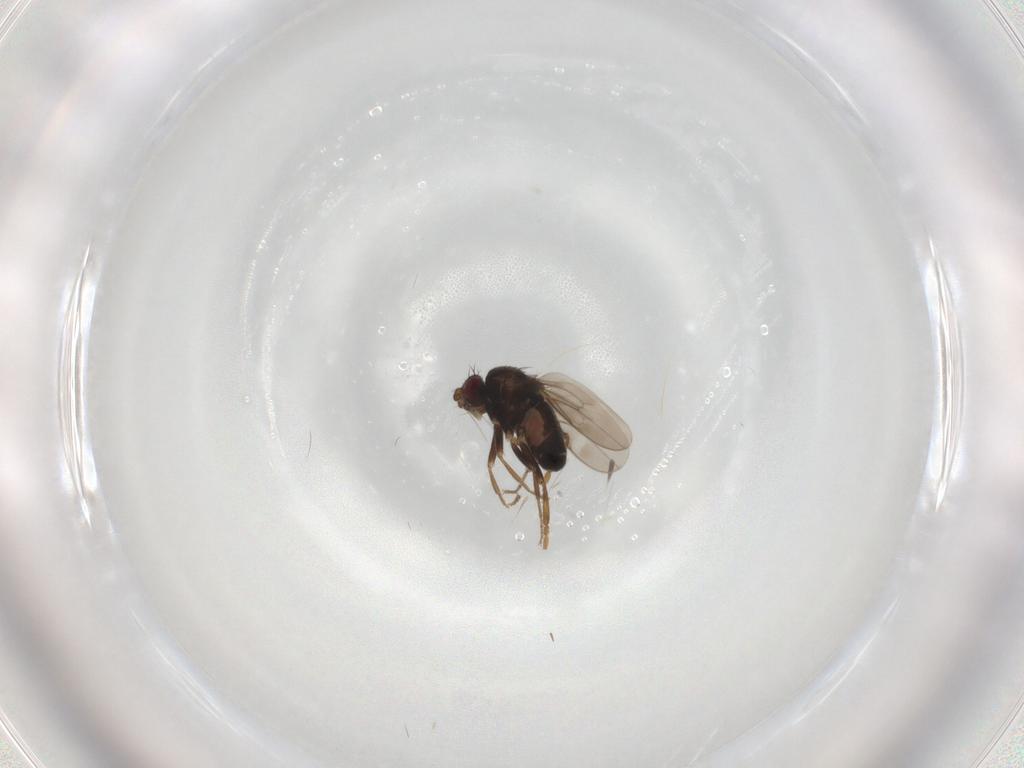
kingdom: Animalia
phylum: Arthropoda
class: Insecta
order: Diptera
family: Sphaeroceridae
